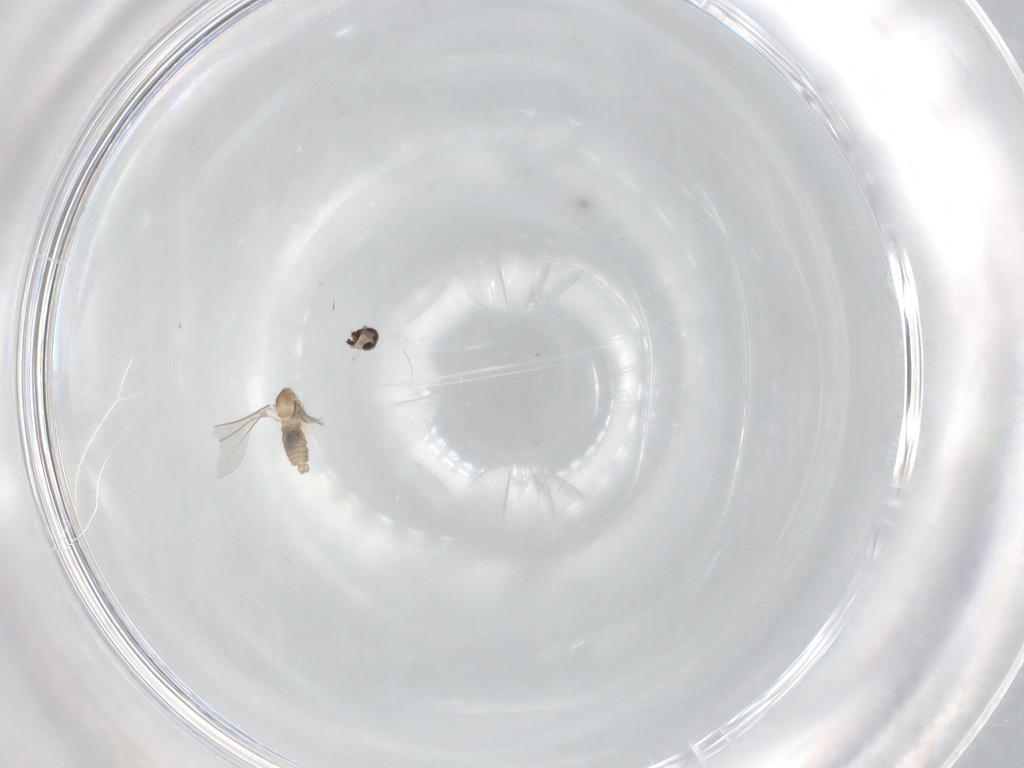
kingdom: Animalia
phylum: Arthropoda
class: Insecta
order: Diptera
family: Cecidomyiidae
